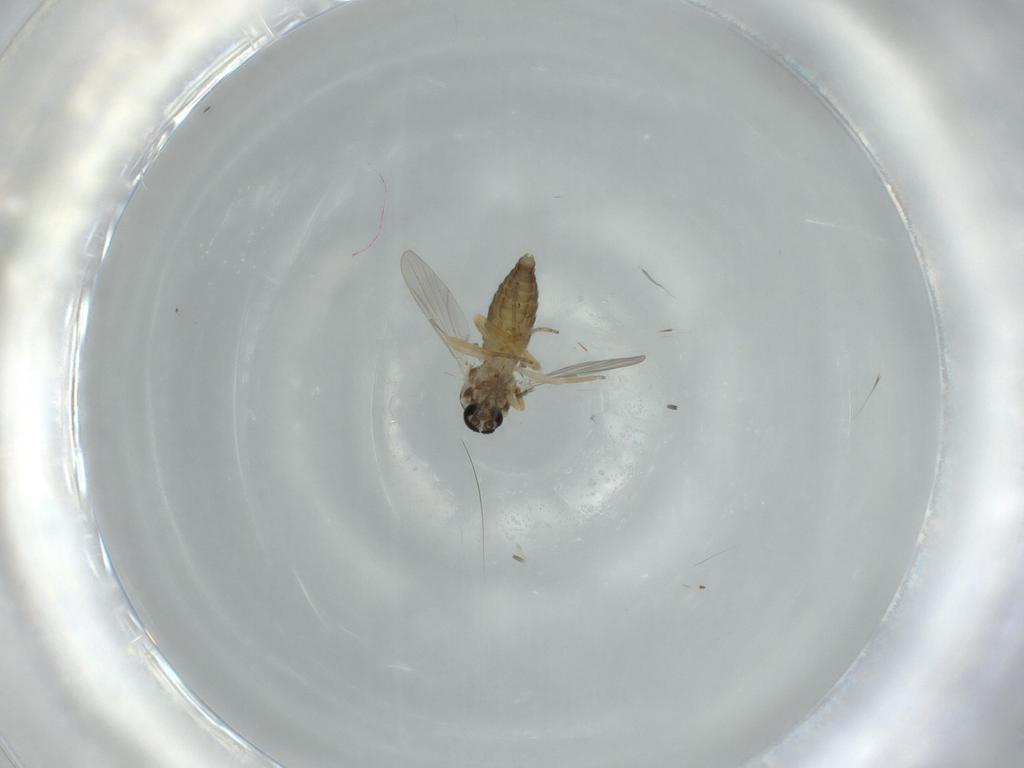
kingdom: Animalia
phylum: Arthropoda
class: Insecta
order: Diptera
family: Ceratopogonidae
